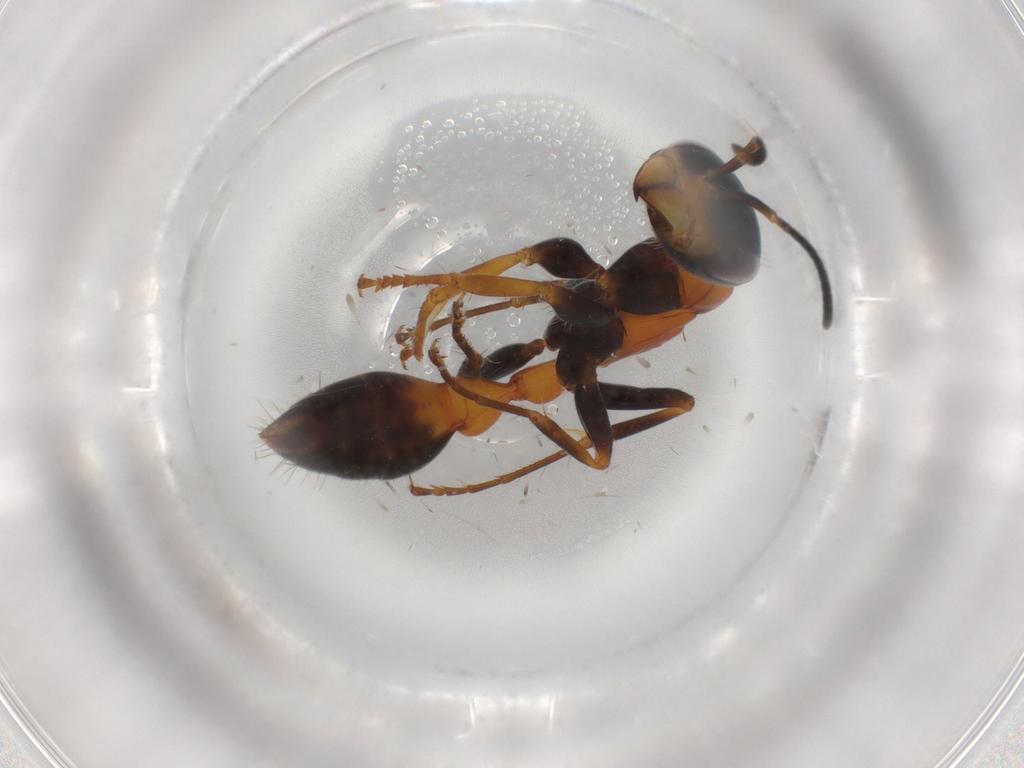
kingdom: Animalia
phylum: Arthropoda
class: Insecta
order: Hymenoptera
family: Formicidae
